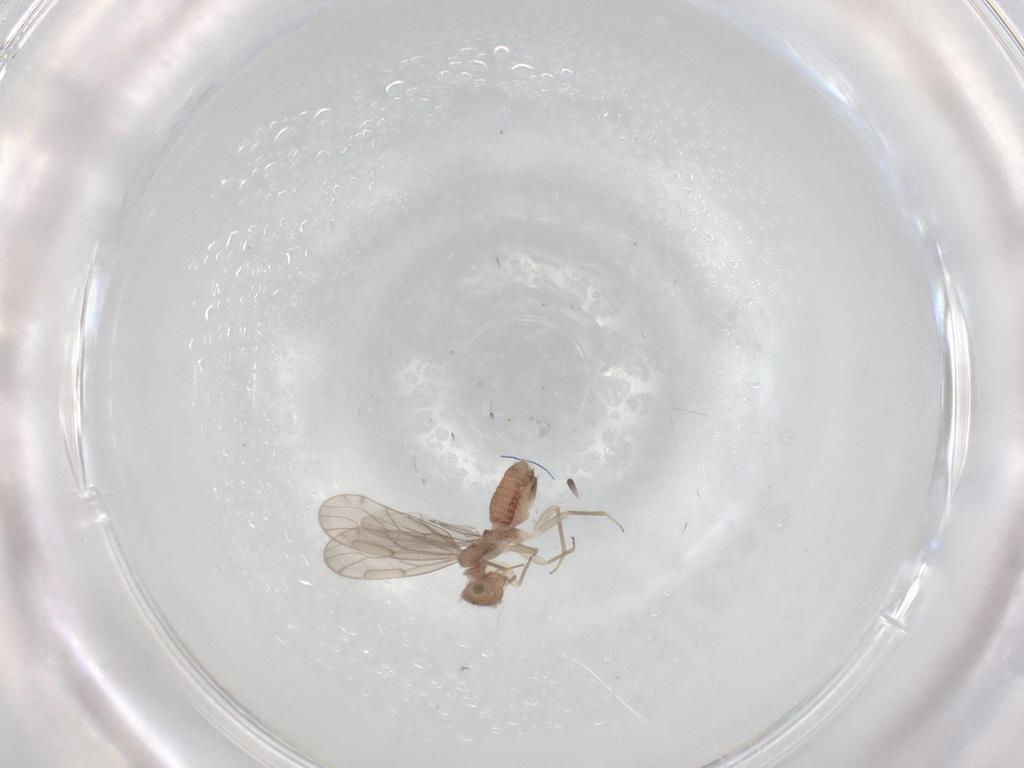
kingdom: Animalia
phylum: Arthropoda
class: Insecta
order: Psocodea
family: Ectopsocidae
